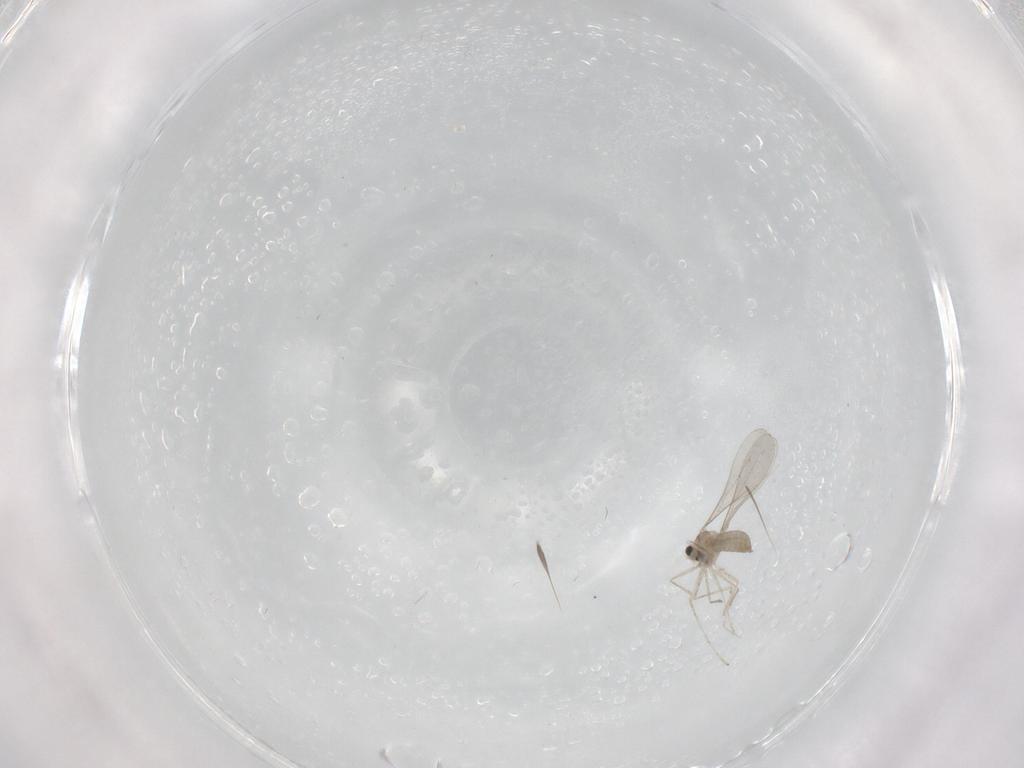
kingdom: Animalia
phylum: Arthropoda
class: Insecta
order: Diptera
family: Cecidomyiidae
